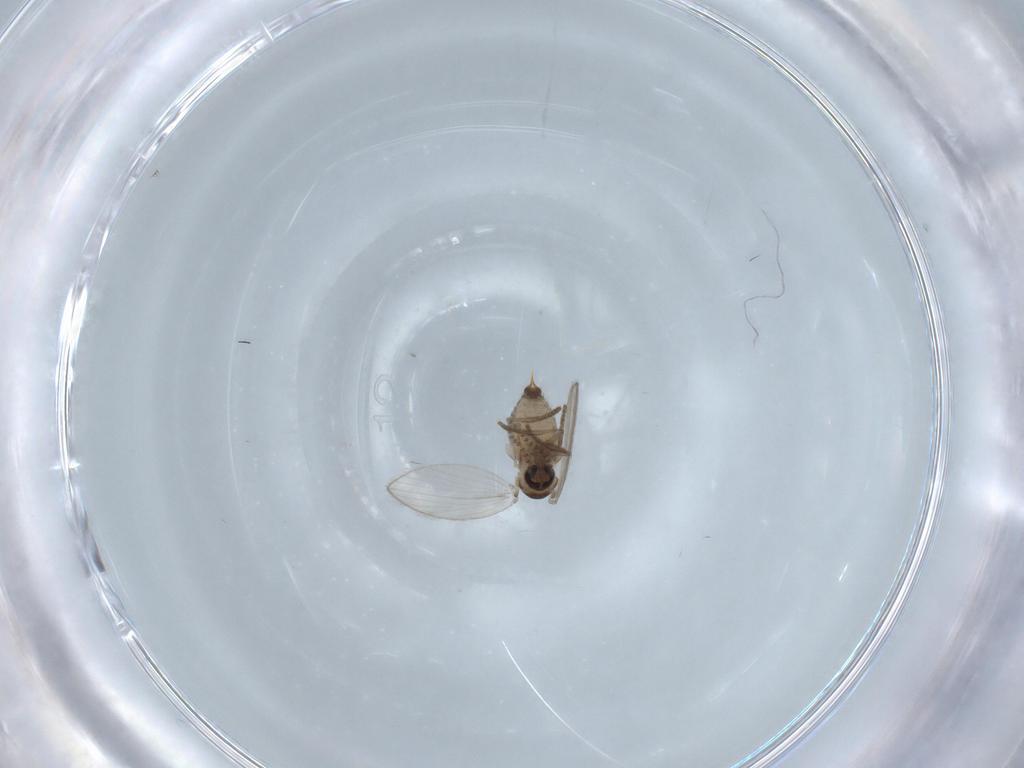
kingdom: Animalia
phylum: Arthropoda
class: Insecta
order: Diptera
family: Psychodidae
